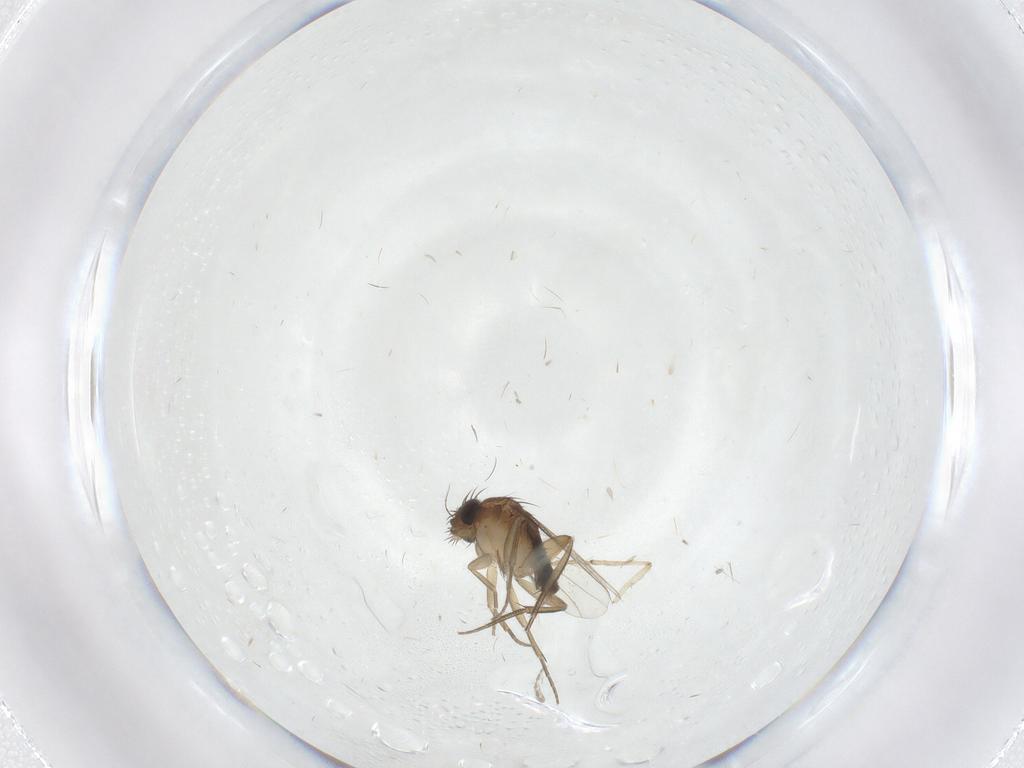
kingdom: Animalia
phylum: Arthropoda
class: Insecta
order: Diptera
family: Phoridae
